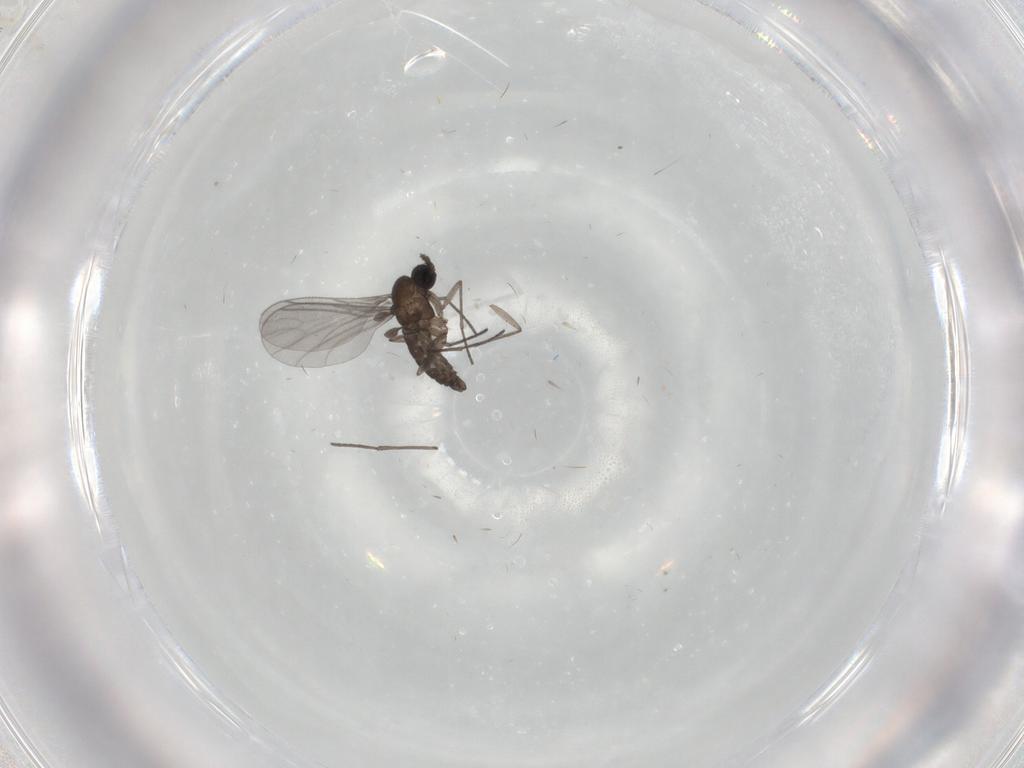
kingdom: Animalia
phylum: Arthropoda
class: Insecta
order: Diptera
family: Sciaridae
